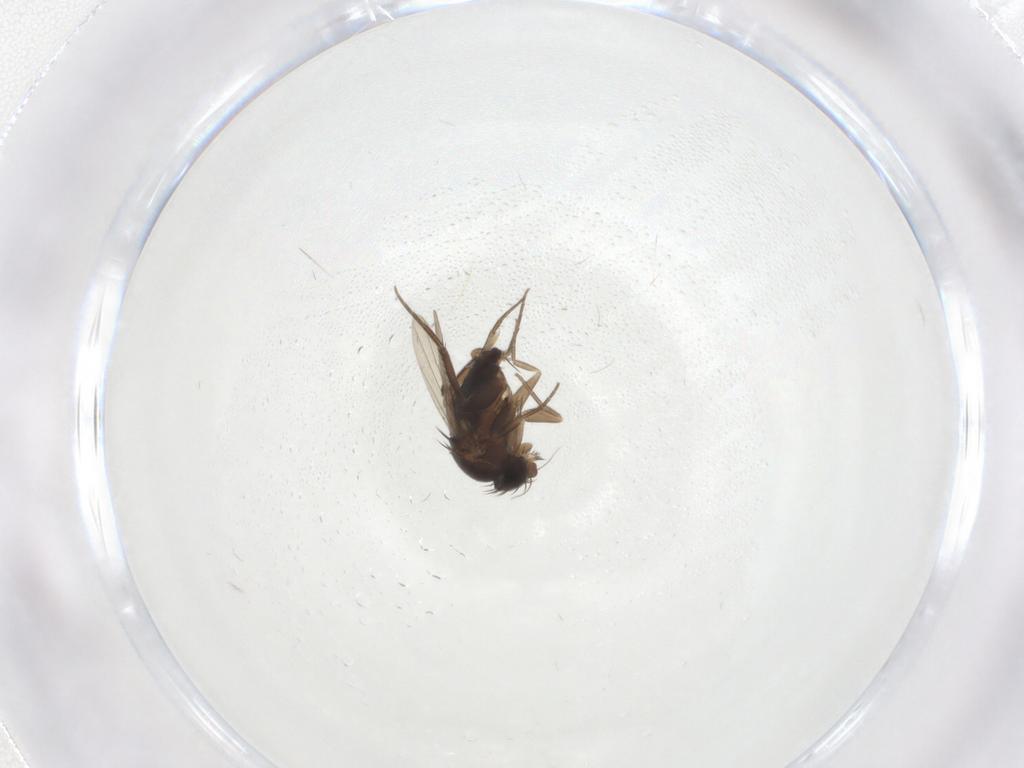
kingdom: Animalia
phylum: Arthropoda
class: Insecta
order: Diptera
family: Phoridae
